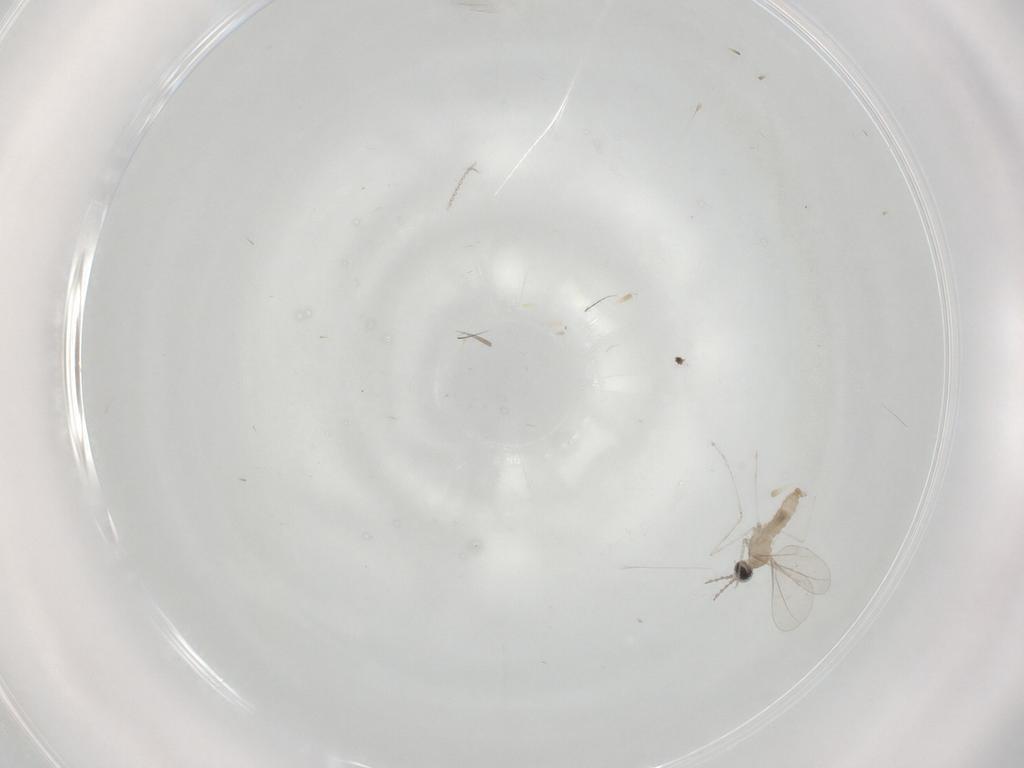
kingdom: Animalia
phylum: Arthropoda
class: Insecta
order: Diptera
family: Cecidomyiidae
